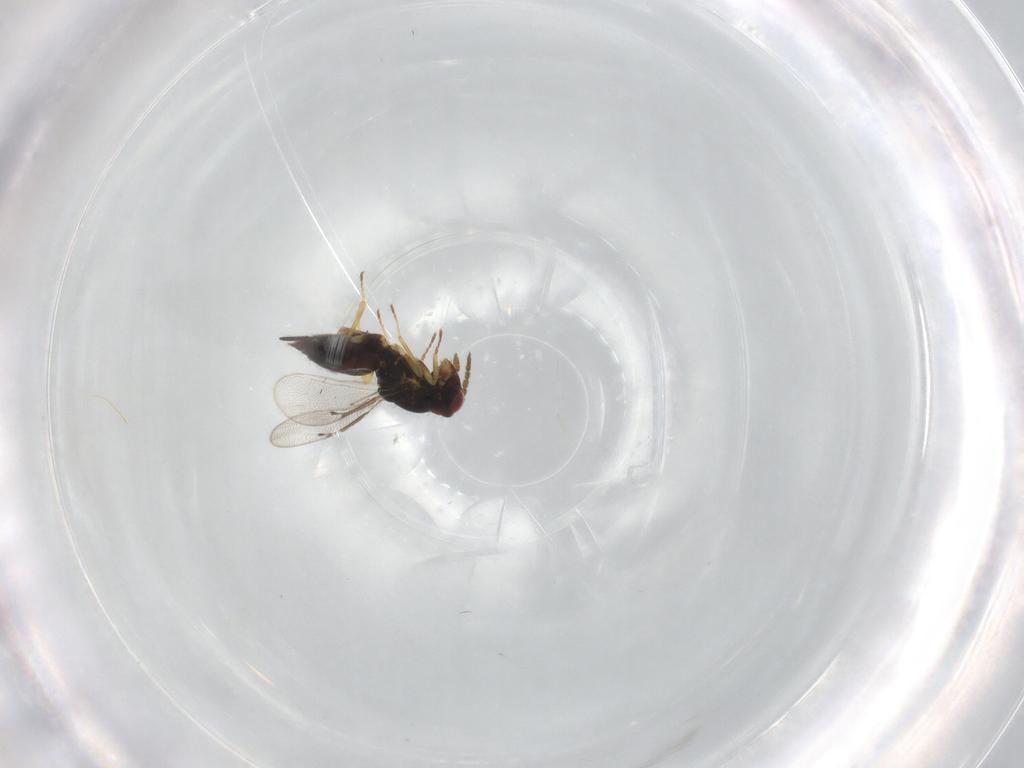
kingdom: Animalia
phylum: Arthropoda
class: Insecta
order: Hymenoptera
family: Eulophidae
